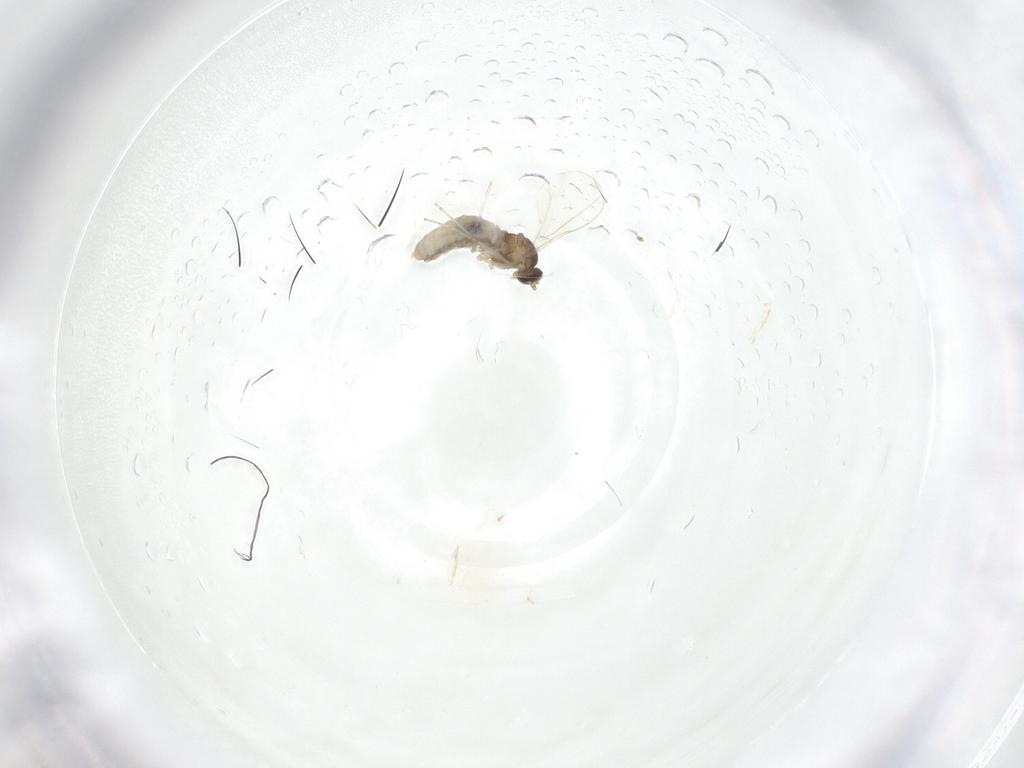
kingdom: Animalia
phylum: Arthropoda
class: Insecta
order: Diptera
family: Cecidomyiidae
